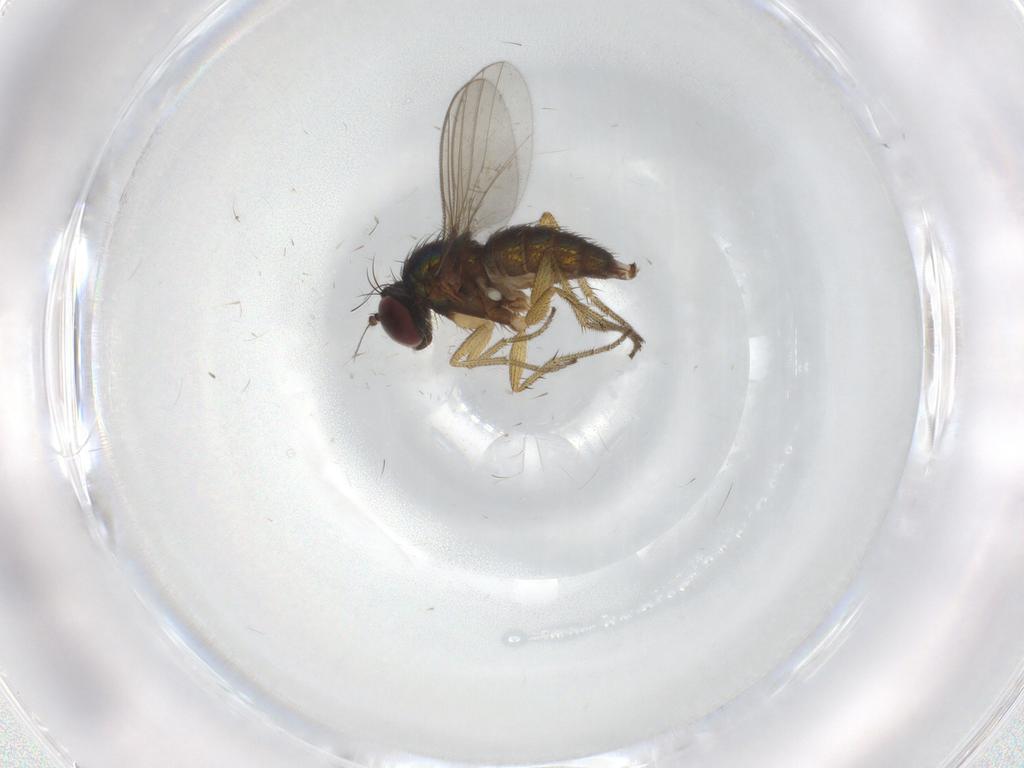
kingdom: Animalia
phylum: Arthropoda
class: Insecta
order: Diptera
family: Dolichopodidae
